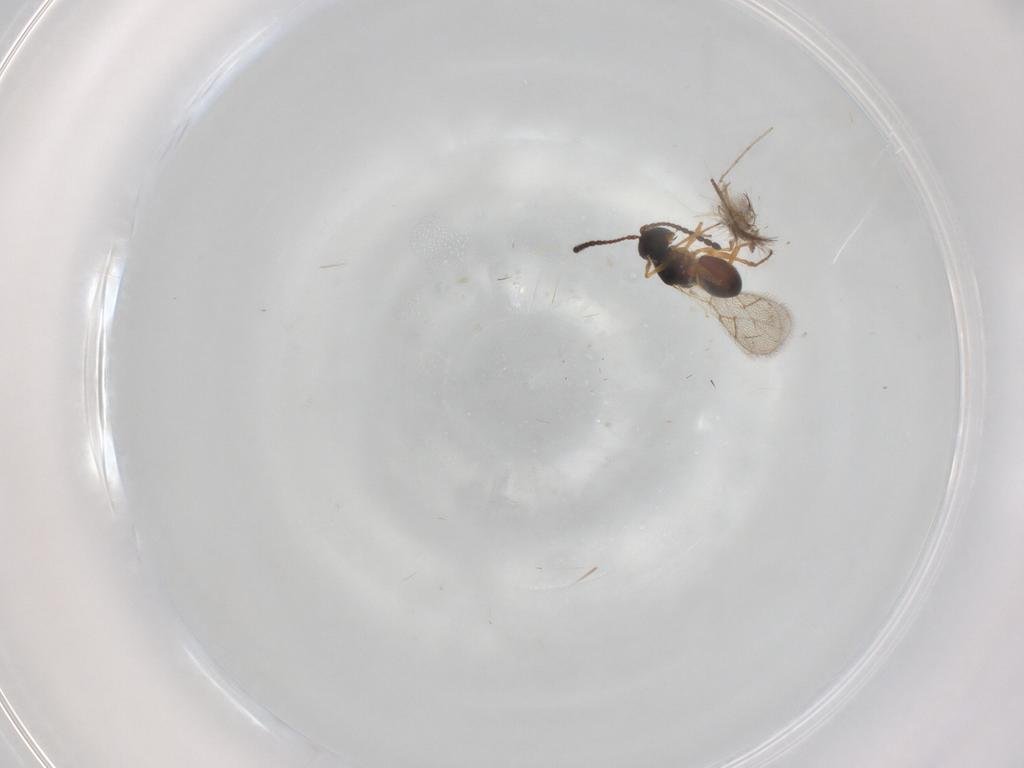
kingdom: Animalia
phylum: Arthropoda
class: Insecta
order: Hymenoptera
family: Figitidae
